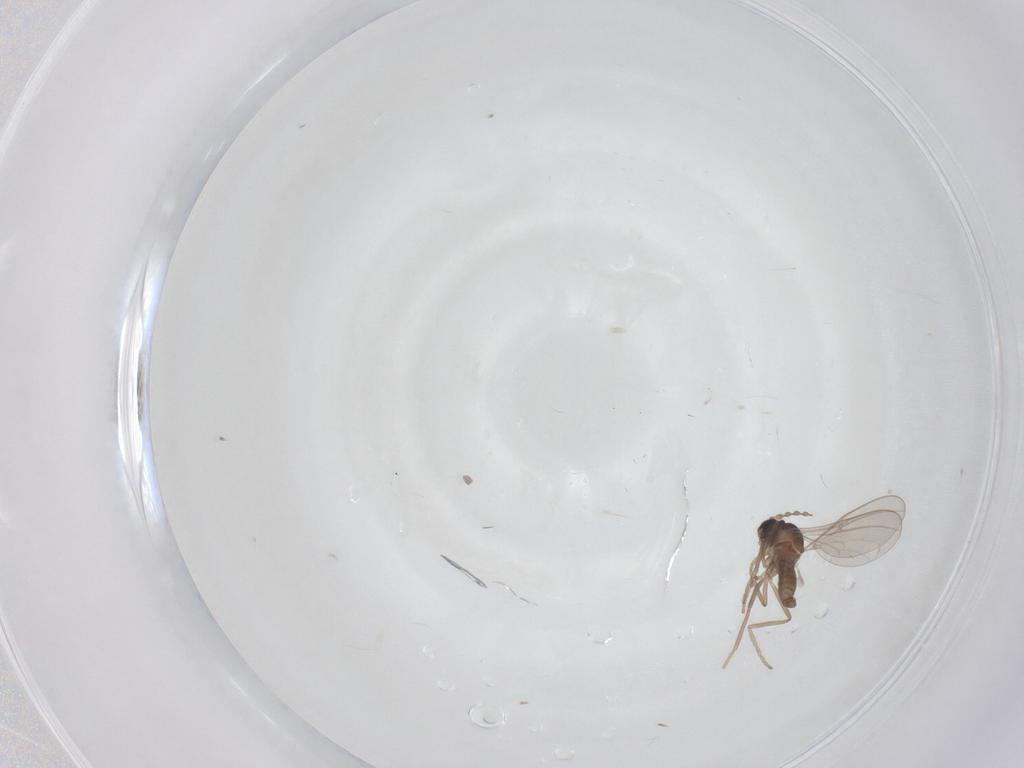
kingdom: Animalia
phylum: Arthropoda
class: Insecta
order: Diptera
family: Cecidomyiidae
